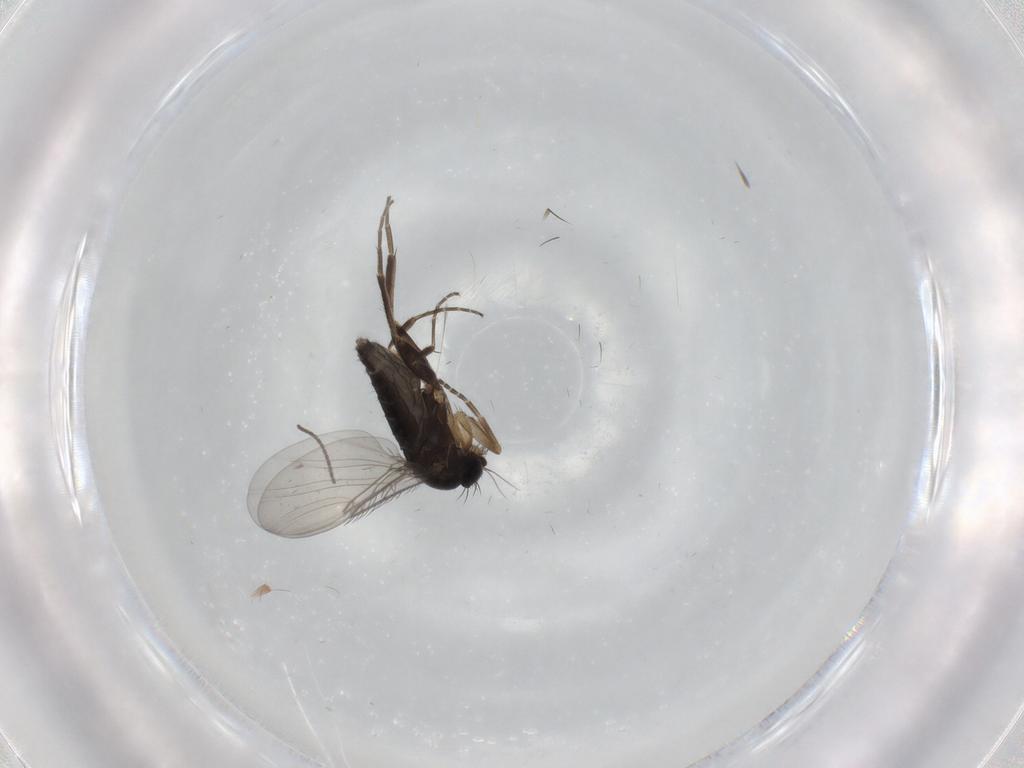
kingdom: Animalia
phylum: Arthropoda
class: Insecta
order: Diptera
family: Phoridae
